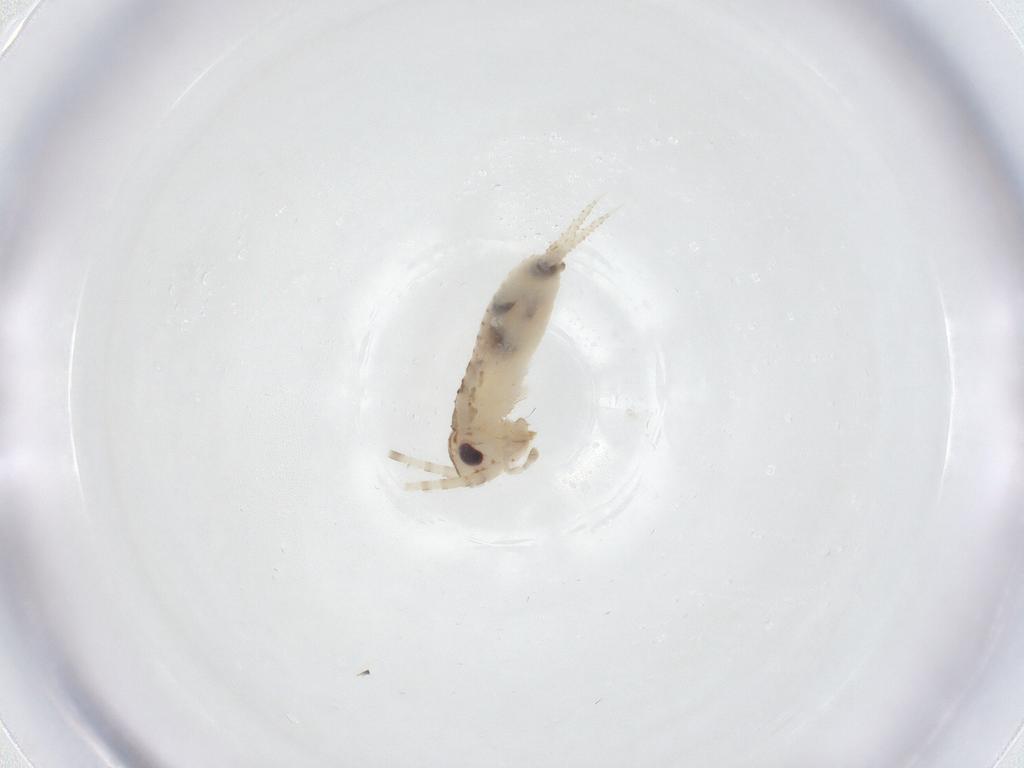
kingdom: Animalia
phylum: Arthropoda
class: Insecta
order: Orthoptera
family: Trigonidiidae
